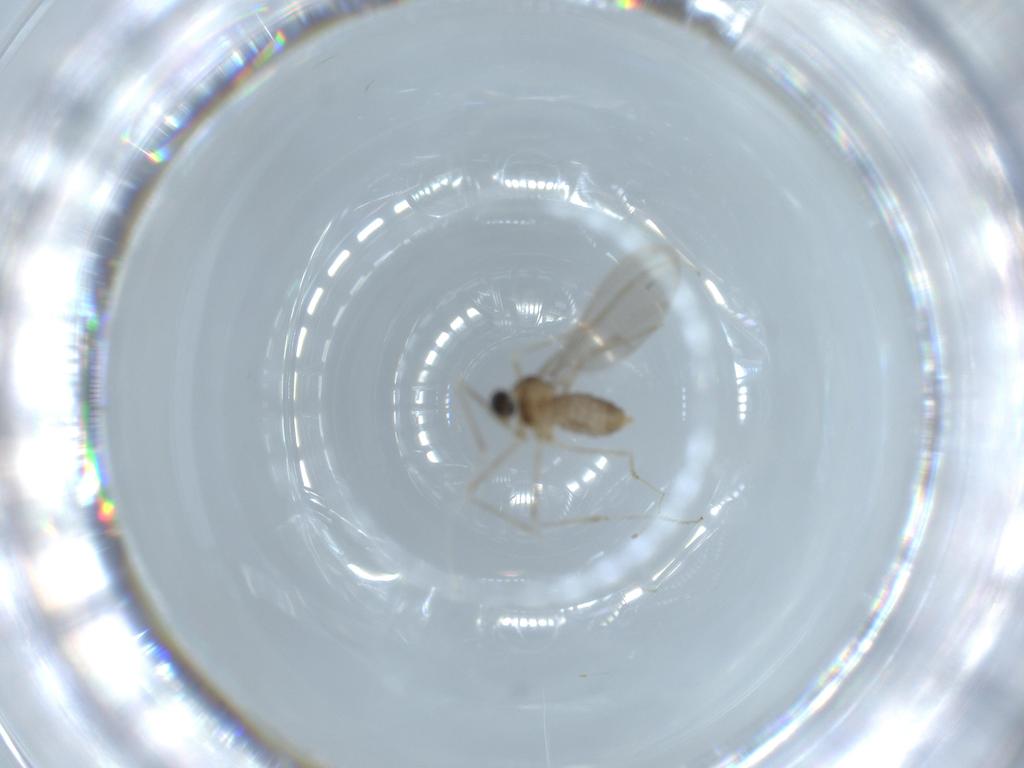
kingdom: Animalia
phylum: Arthropoda
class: Insecta
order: Diptera
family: Cecidomyiidae
